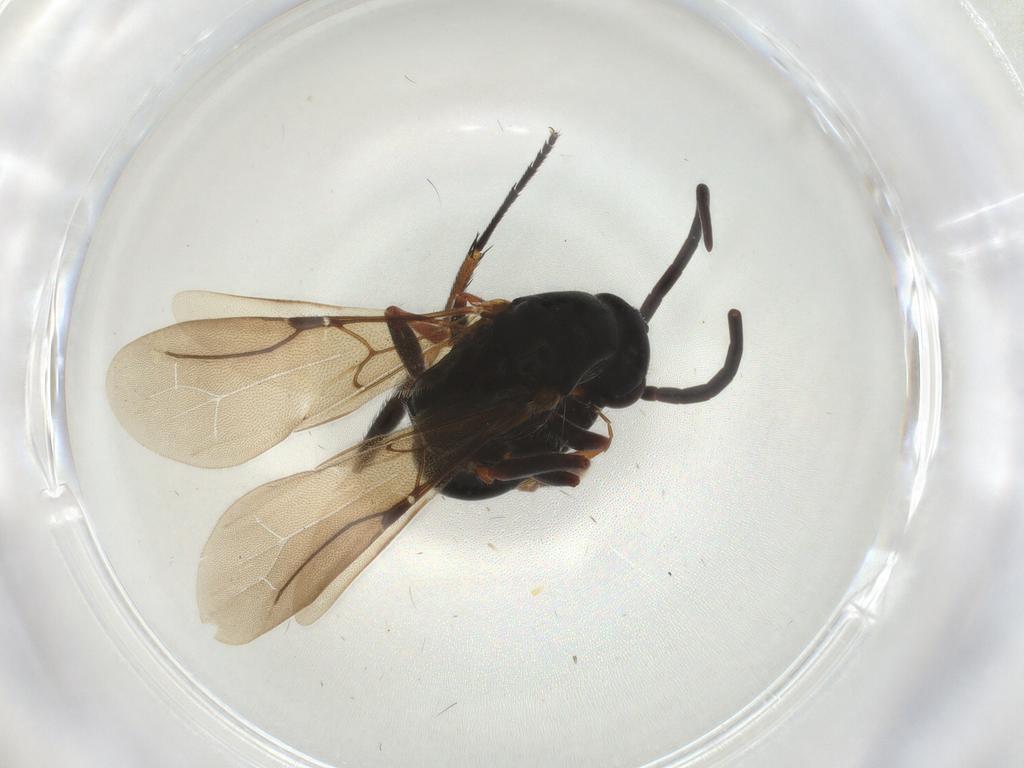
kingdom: Animalia
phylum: Arthropoda
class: Insecta
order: Hymenoptera
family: Bethylidae
